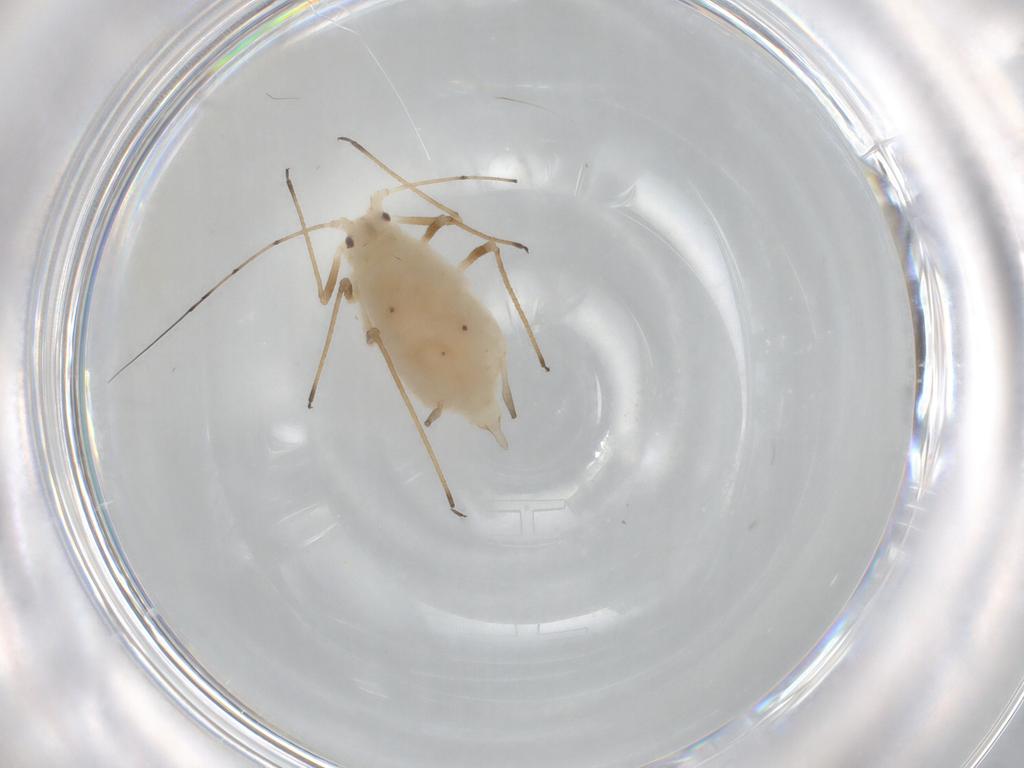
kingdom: Animalia
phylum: Arthropoda
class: Insecta
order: Hemiptera
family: Aphididae
